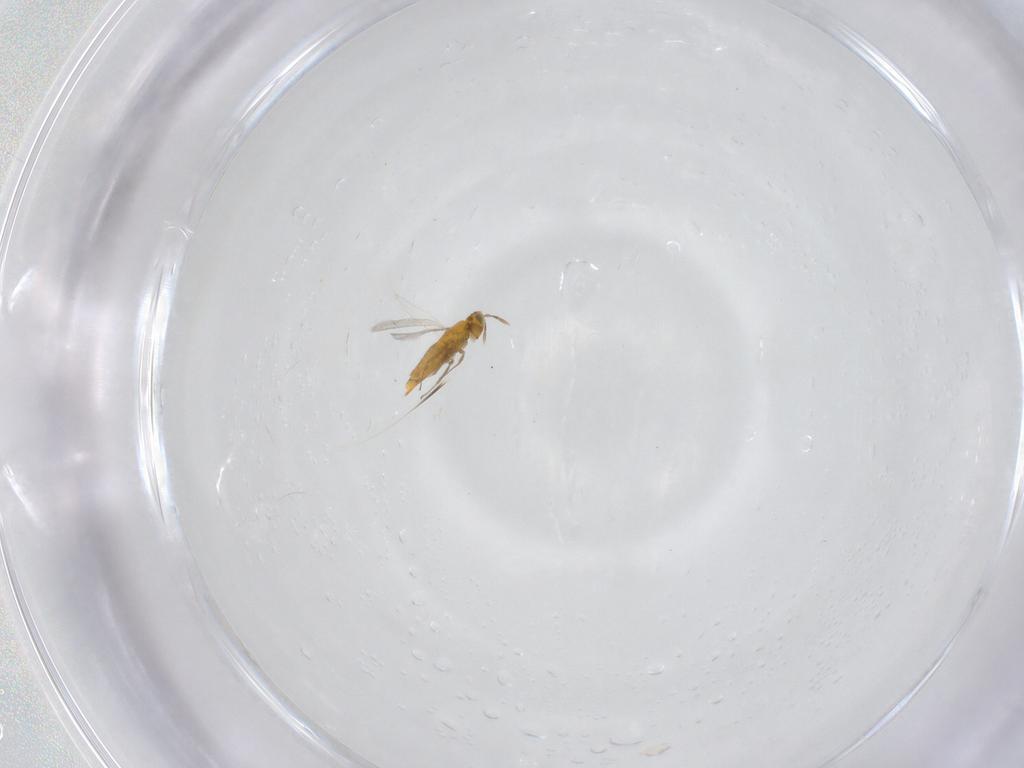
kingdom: Animalia
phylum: Arthropoda
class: Insecta
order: Hymenoptera
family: Aphelinidae
